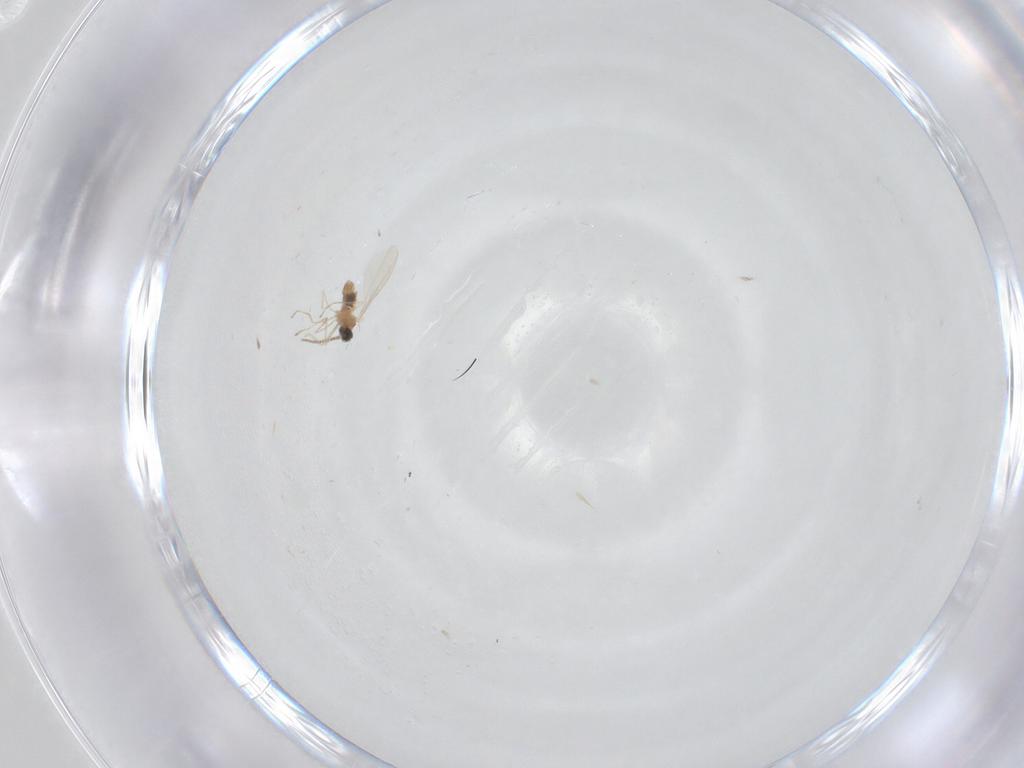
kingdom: Animalia
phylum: Arthropoda
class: Insecta
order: Diptera
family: Cecidomyiidae
